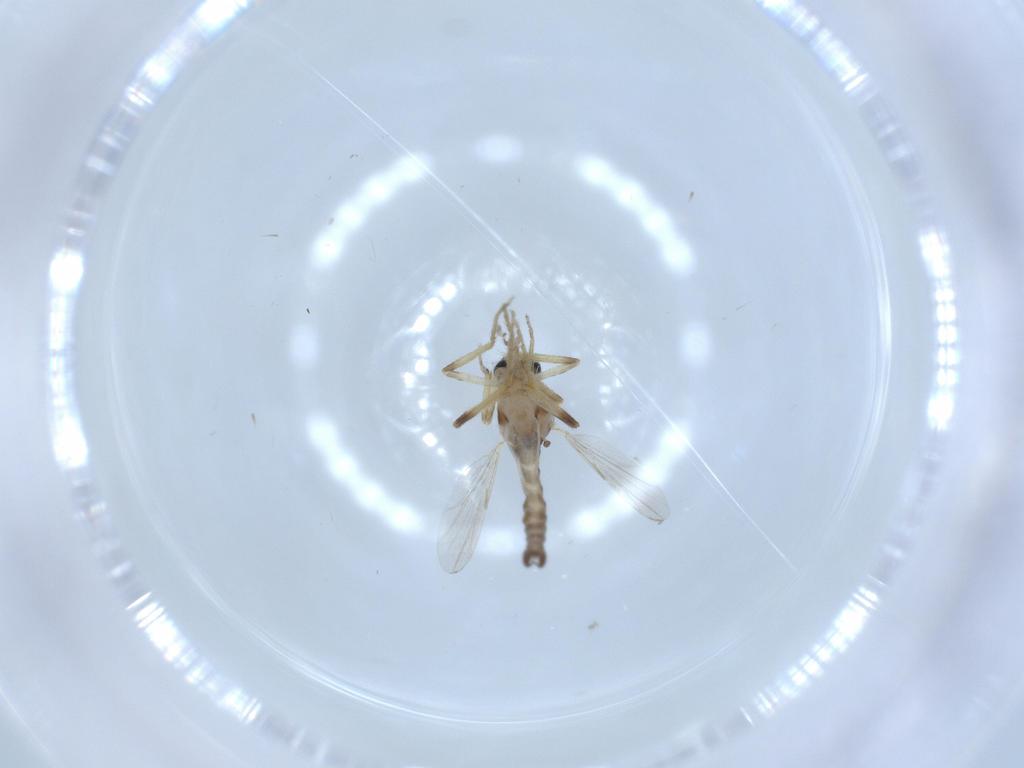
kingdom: Animalia
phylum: Arthropoda
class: Insecta
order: Diptera
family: Ceratopogonidae
